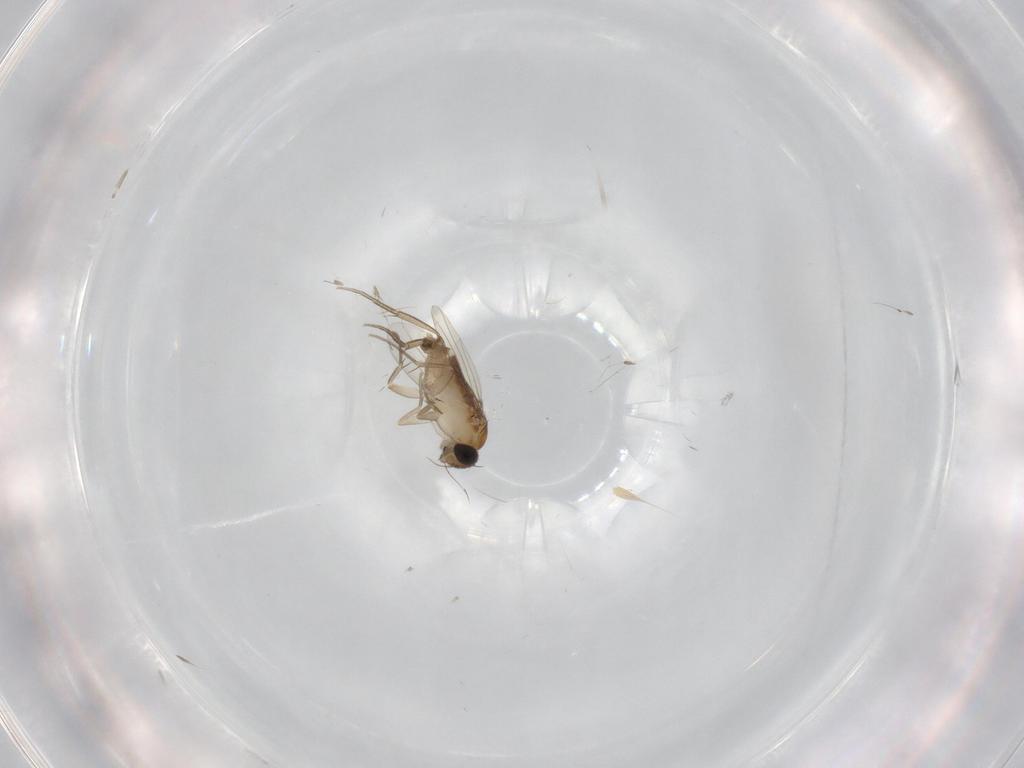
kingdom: Animalia
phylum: Arthropoda
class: Insecta
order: Diptera
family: Phoridae
